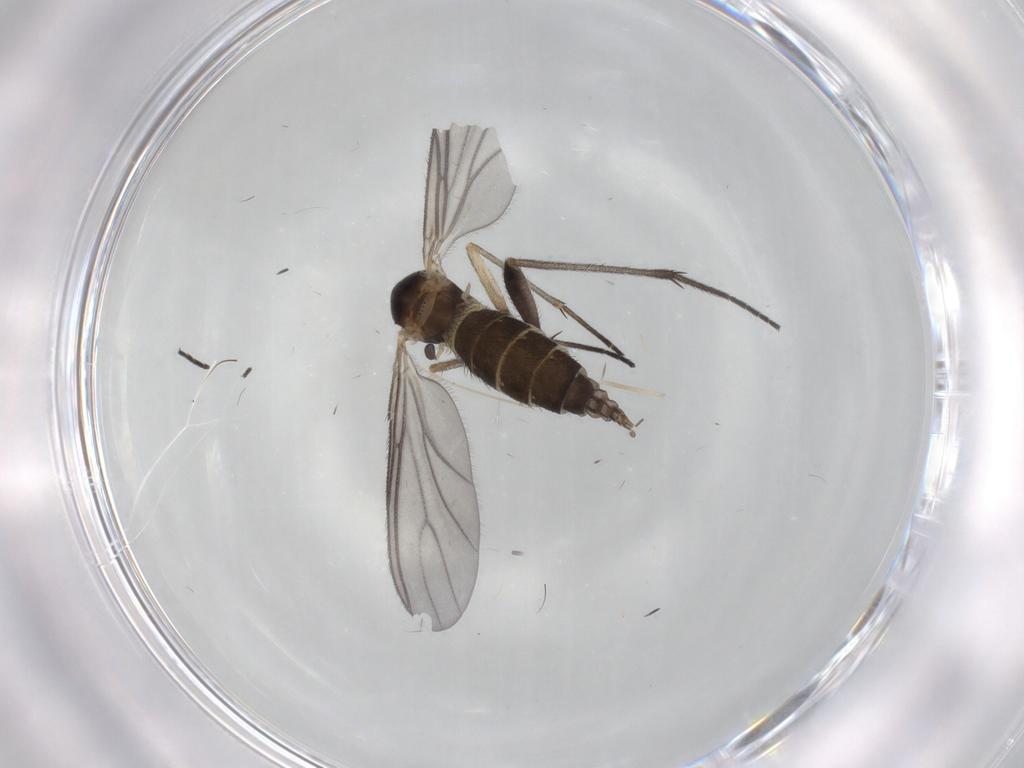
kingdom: Animalia
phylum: Arthropoda
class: Insecta
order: Diptera
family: Sciaridae
